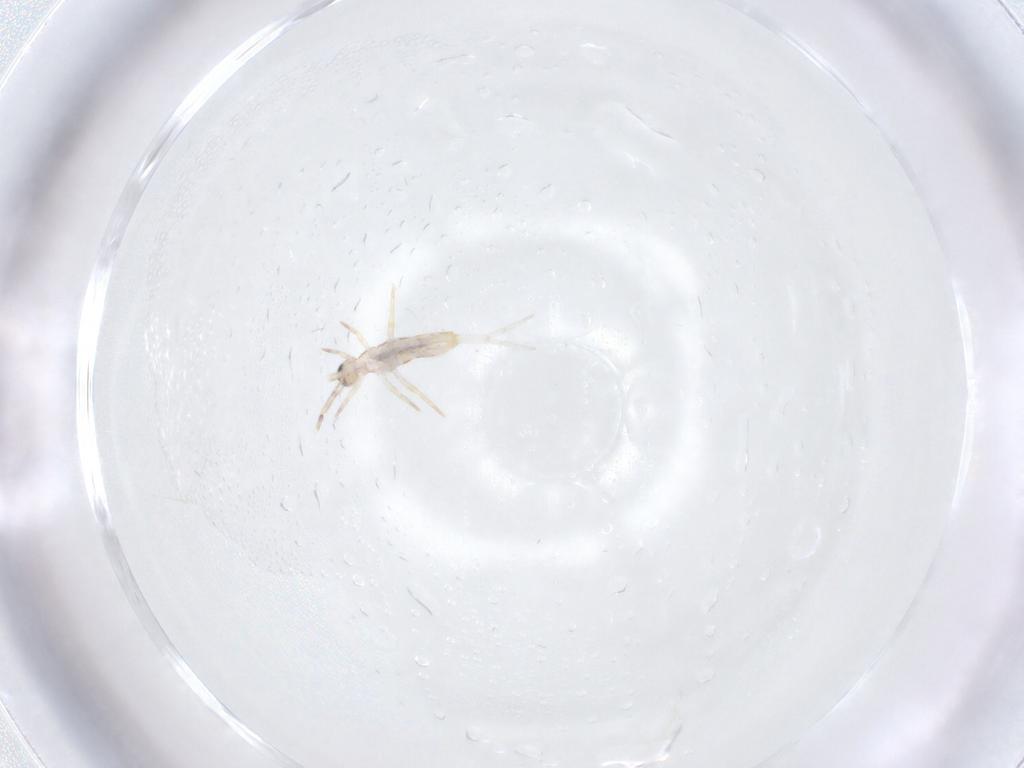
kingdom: Animalia
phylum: Arthropoda
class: Collembola
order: Entomobryomorpha
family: Entomobryidae
